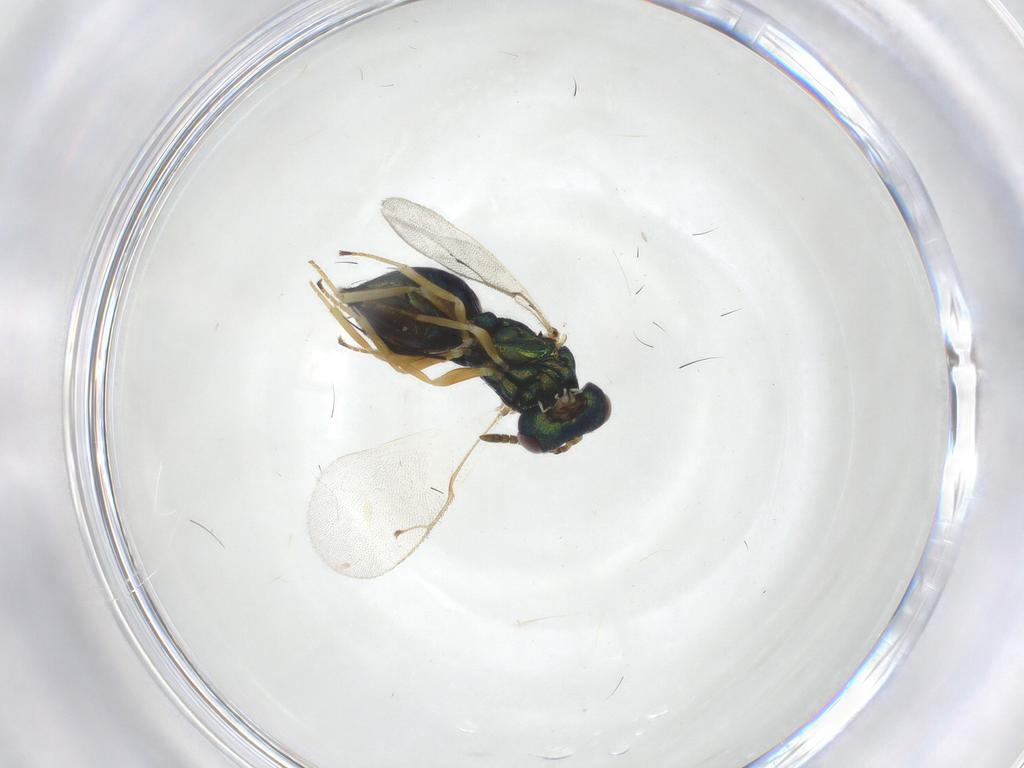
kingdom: Animalia
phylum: Arthropoda
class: Insecta
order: Hymenoptera
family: Pteromalidae
